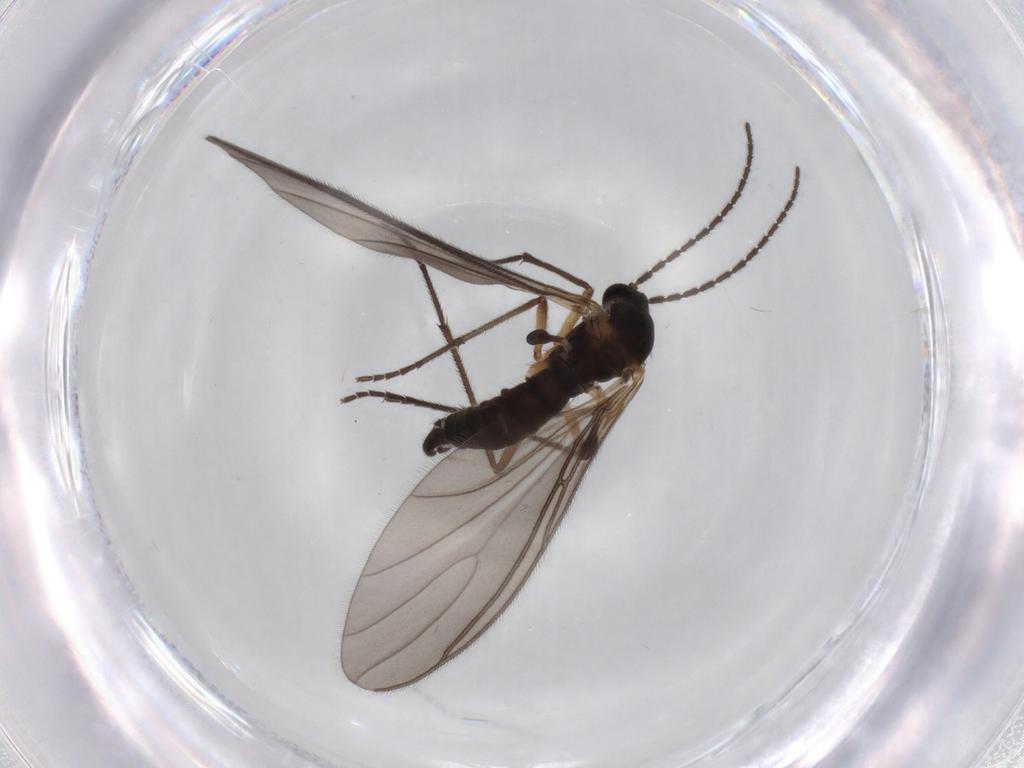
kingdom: Animalia
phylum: Arthropoda
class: Insecta
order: Diptera
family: Sciaridae
